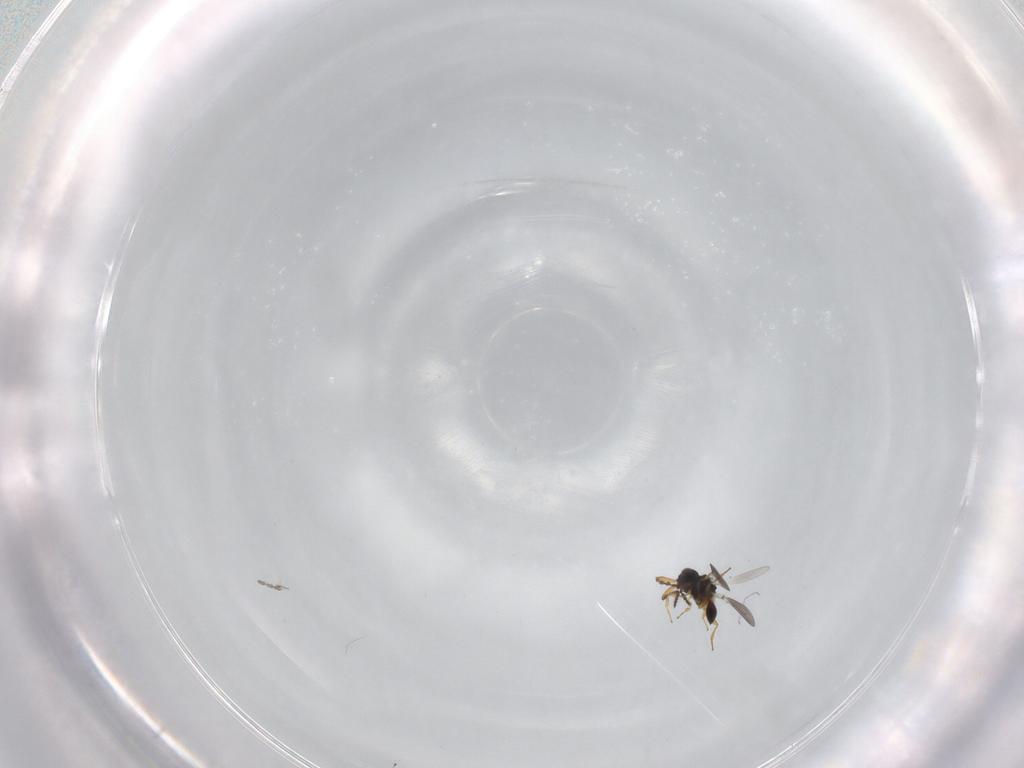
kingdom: Animalia
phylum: Arthropoda
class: Insecta
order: Hymenoptera
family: Platygastridae
